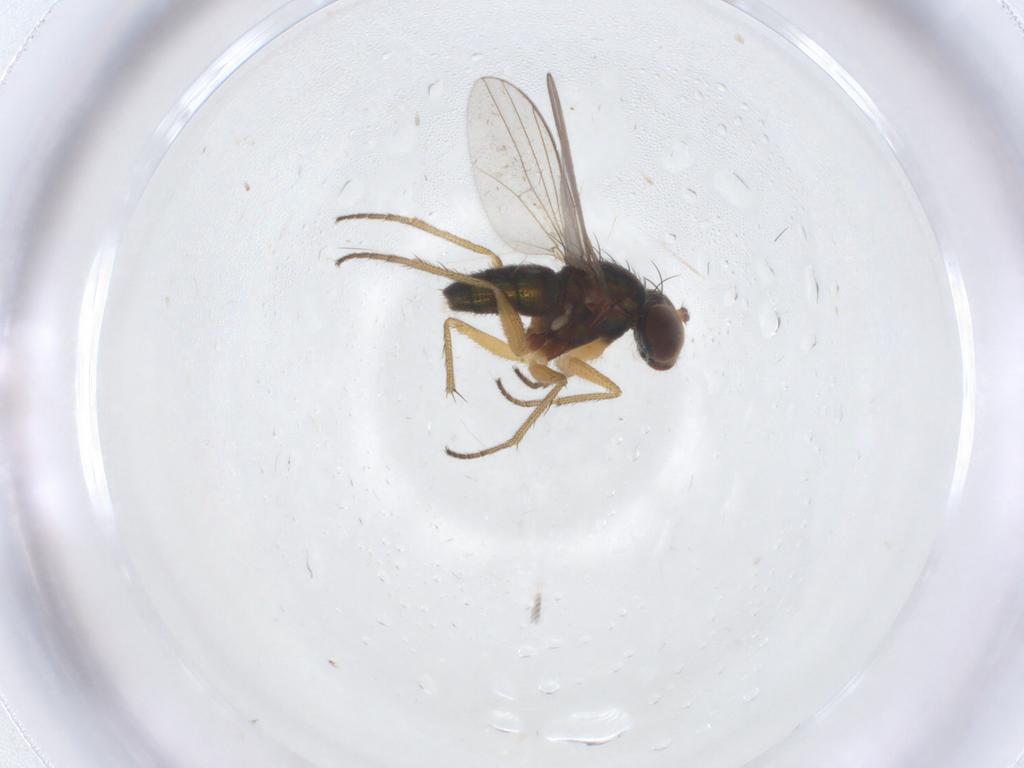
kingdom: Animalia
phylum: Arthropoda
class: Insecta
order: Diptera
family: Dolichopodidae
